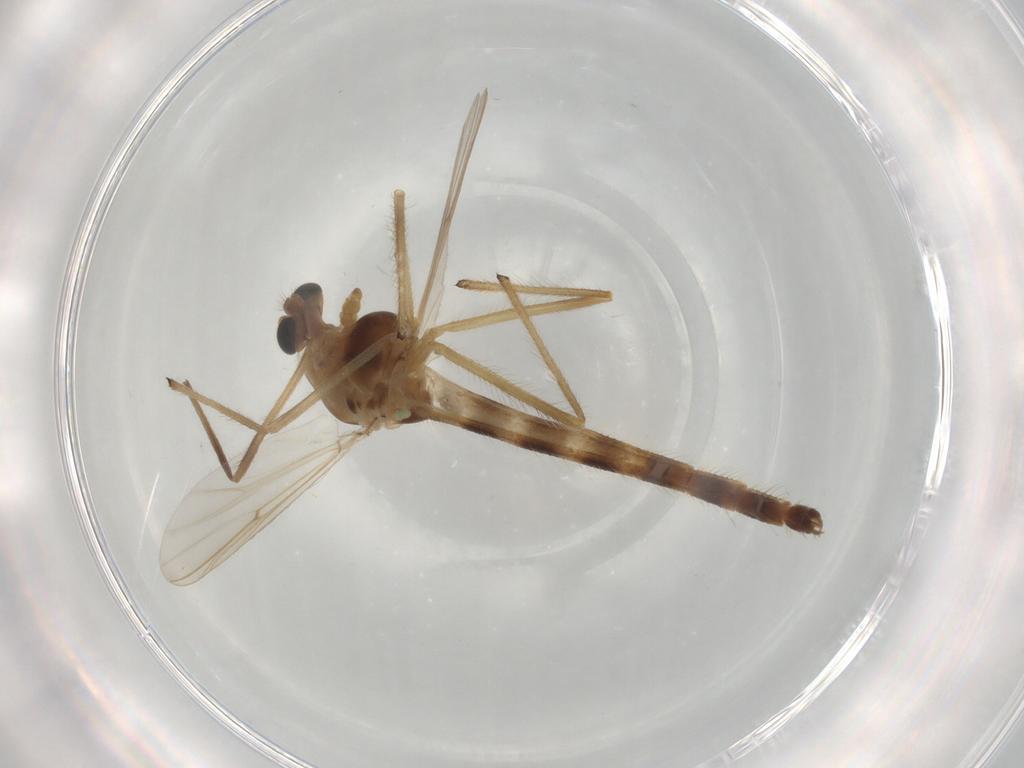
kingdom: Animalia
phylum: Arthropoda
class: Insecta
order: Diptera
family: Chironomidae
